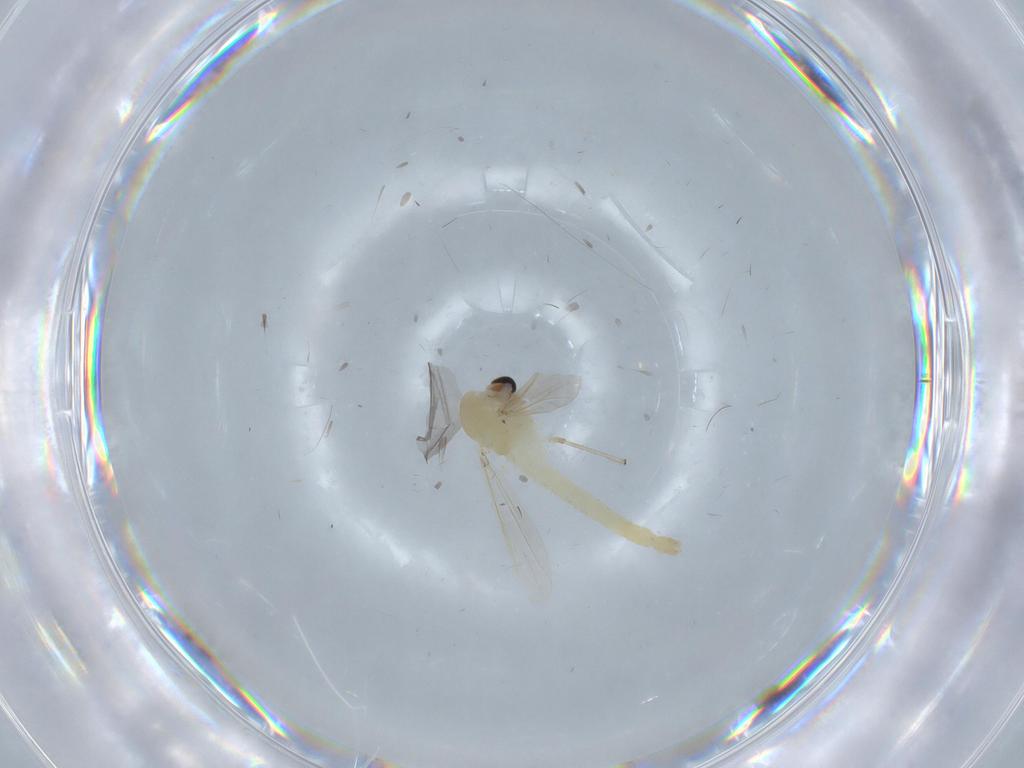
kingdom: Animalia
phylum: Arthropoda
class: Insecta
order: Diptera
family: Chironomidae
